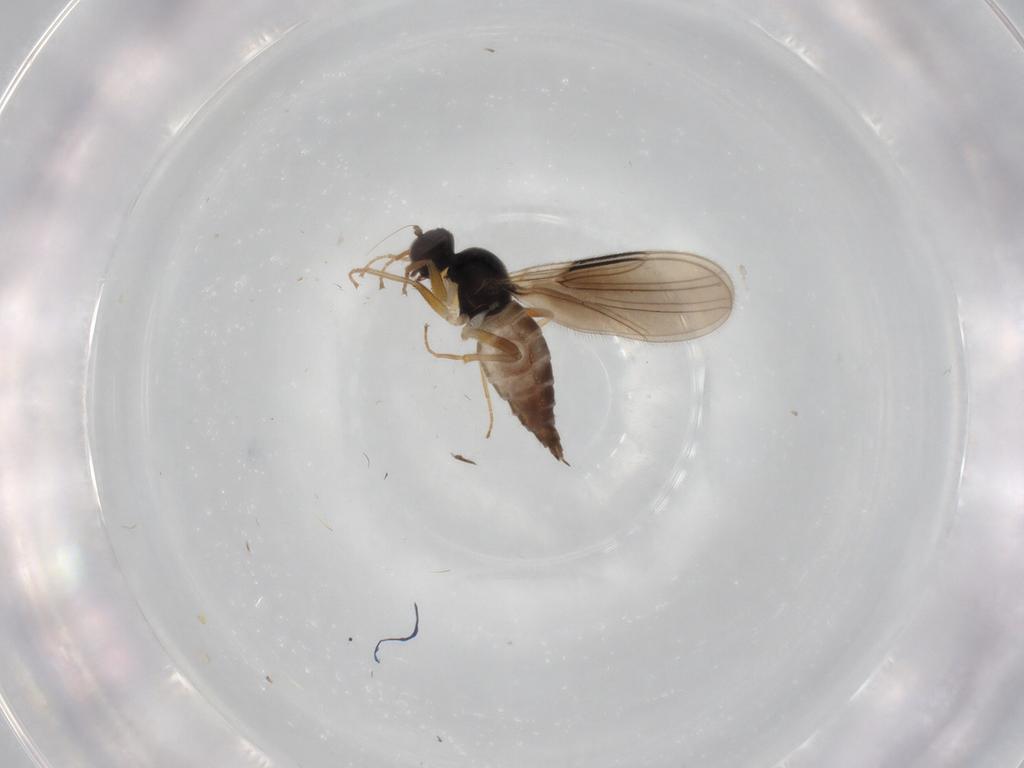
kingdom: Animalia
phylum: Arthropoda
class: Insecta
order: Diptera
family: Hybotidae
